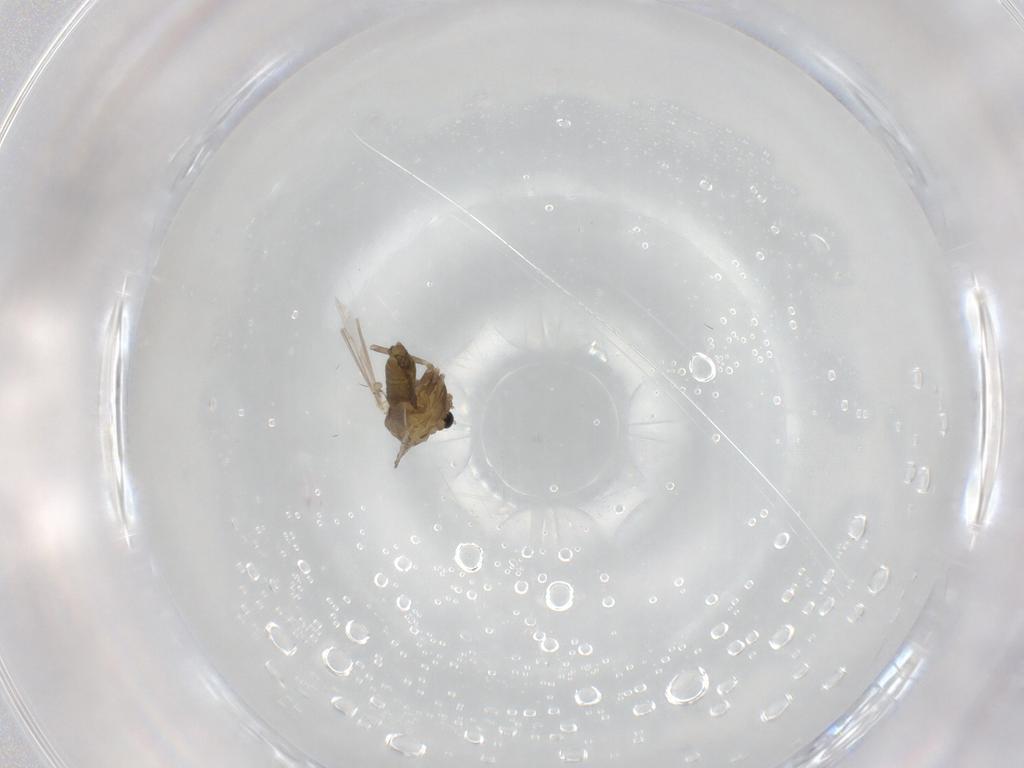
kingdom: Animalia
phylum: Arthropoda
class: Insecta
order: Diptera
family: Chironomidae
